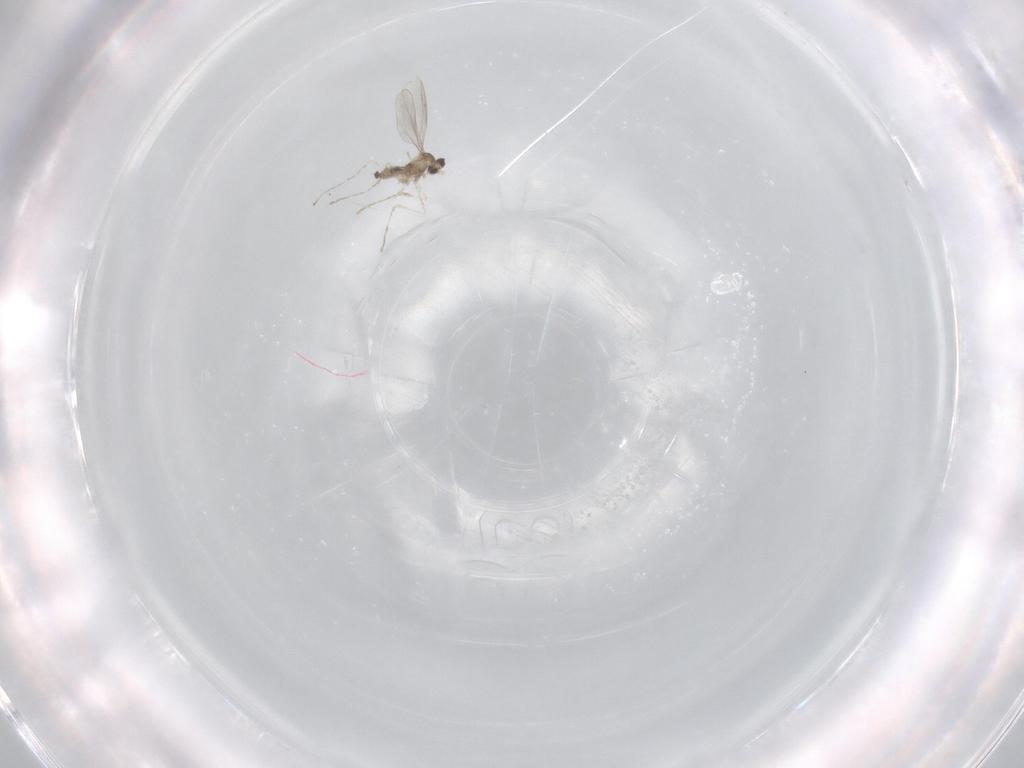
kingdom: Animalia
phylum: Arthropoda
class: Insecta
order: Diptera
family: Cecidomyiidae
